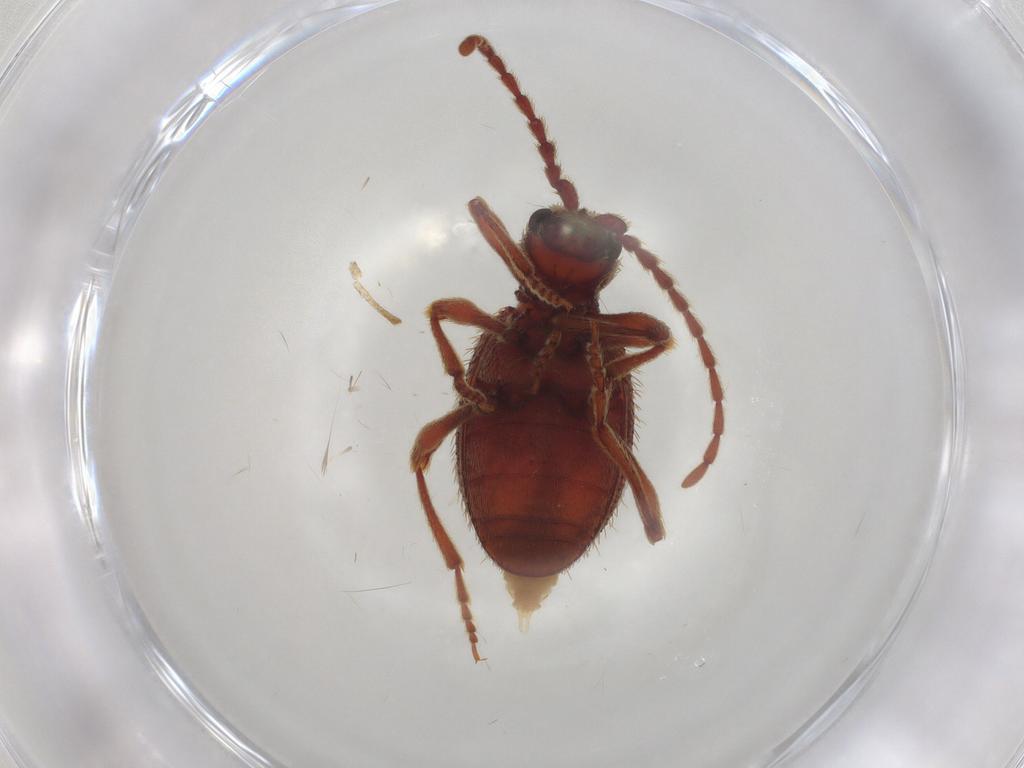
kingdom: Animalia
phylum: Arthropoda
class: Insecta
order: Coleoptera
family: Ptinidae
